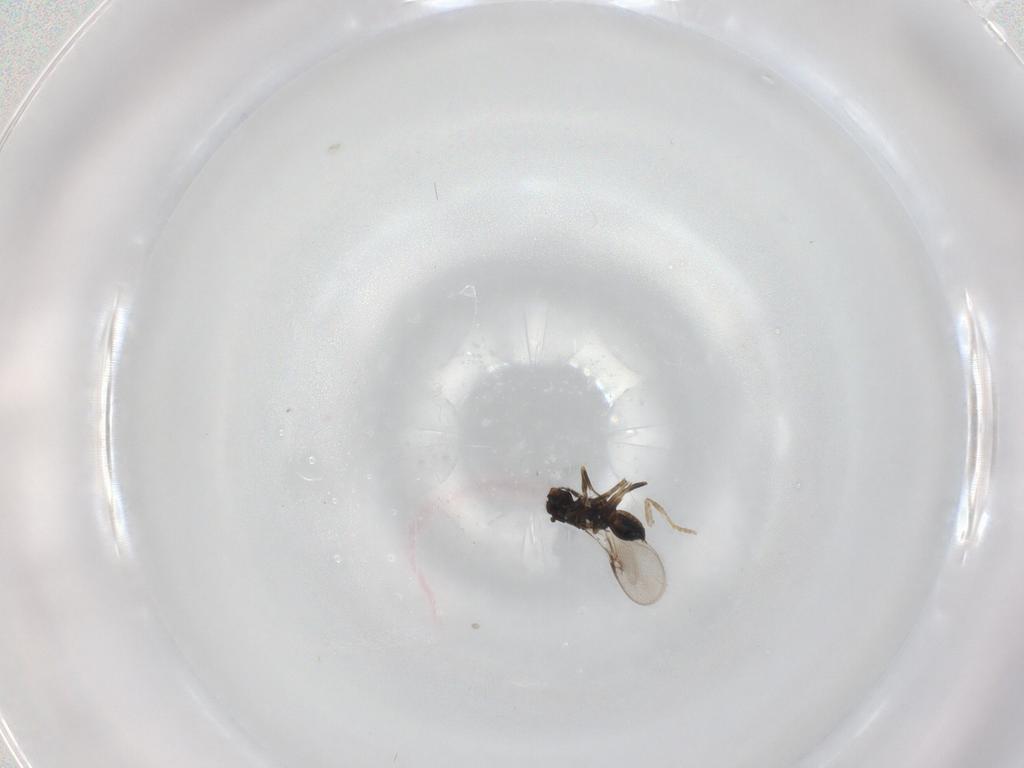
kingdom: Animalia
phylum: Arthropoda
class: Insecta
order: Hymenoptera
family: Encyrtidae
